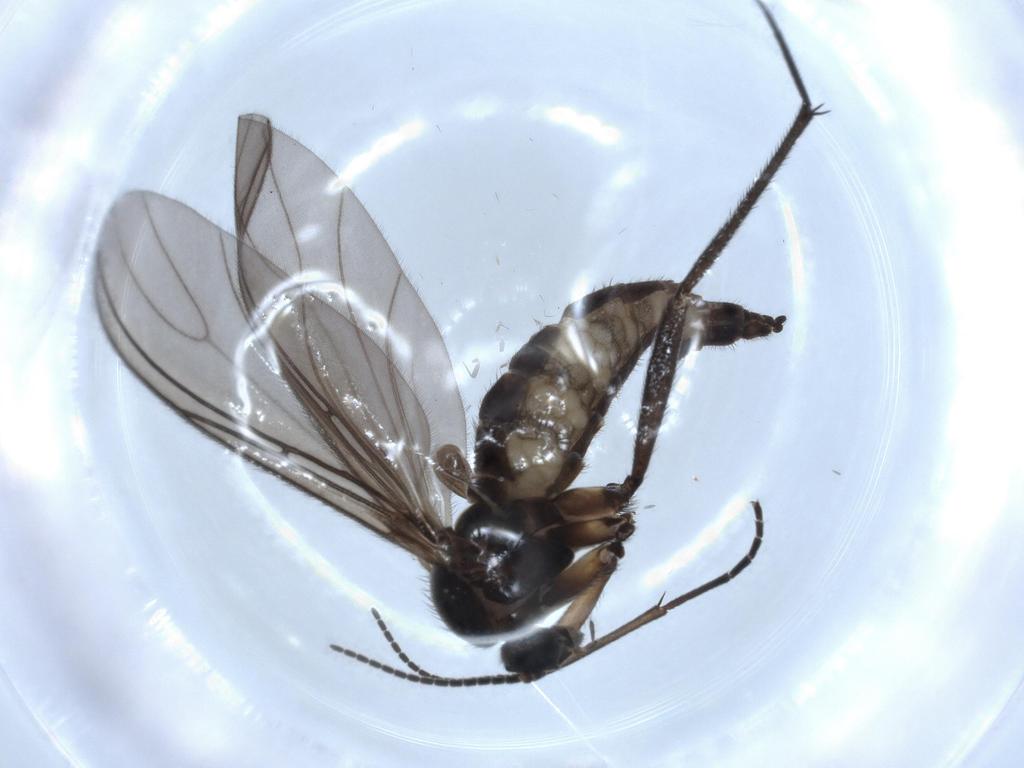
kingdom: Animalia
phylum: Arthropoda
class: Insecta
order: Diptera
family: Sciaridae
